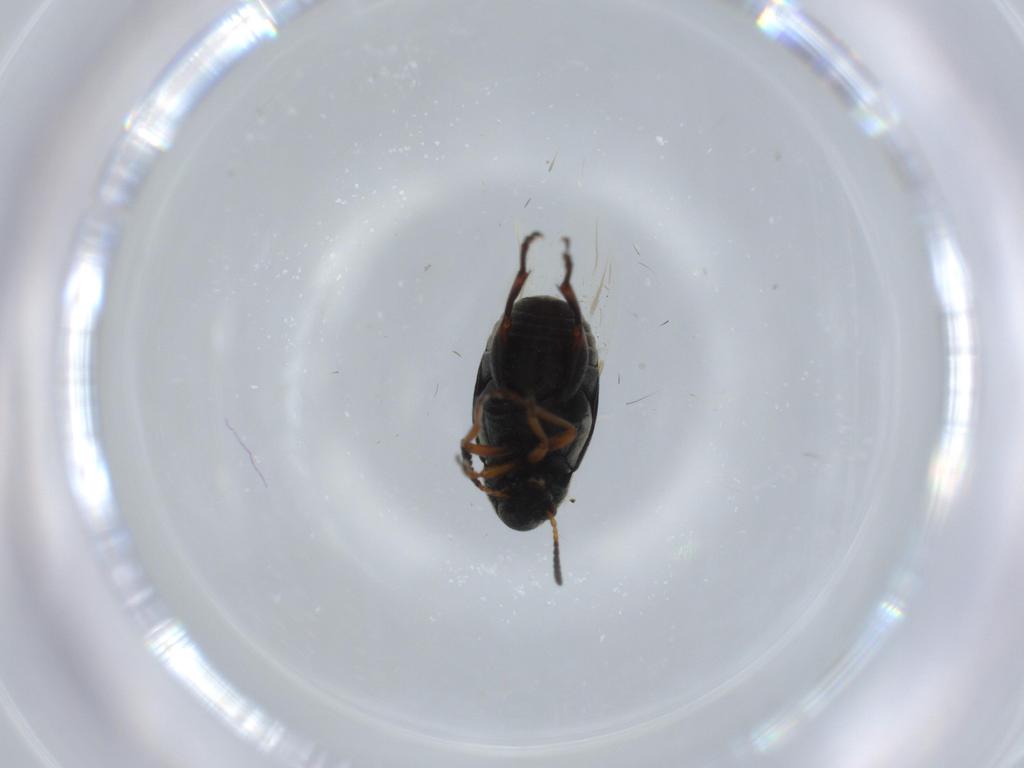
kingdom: Animalia
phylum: Arthropoda
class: Insecta
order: Coleoptera
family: Chrysomelidae
